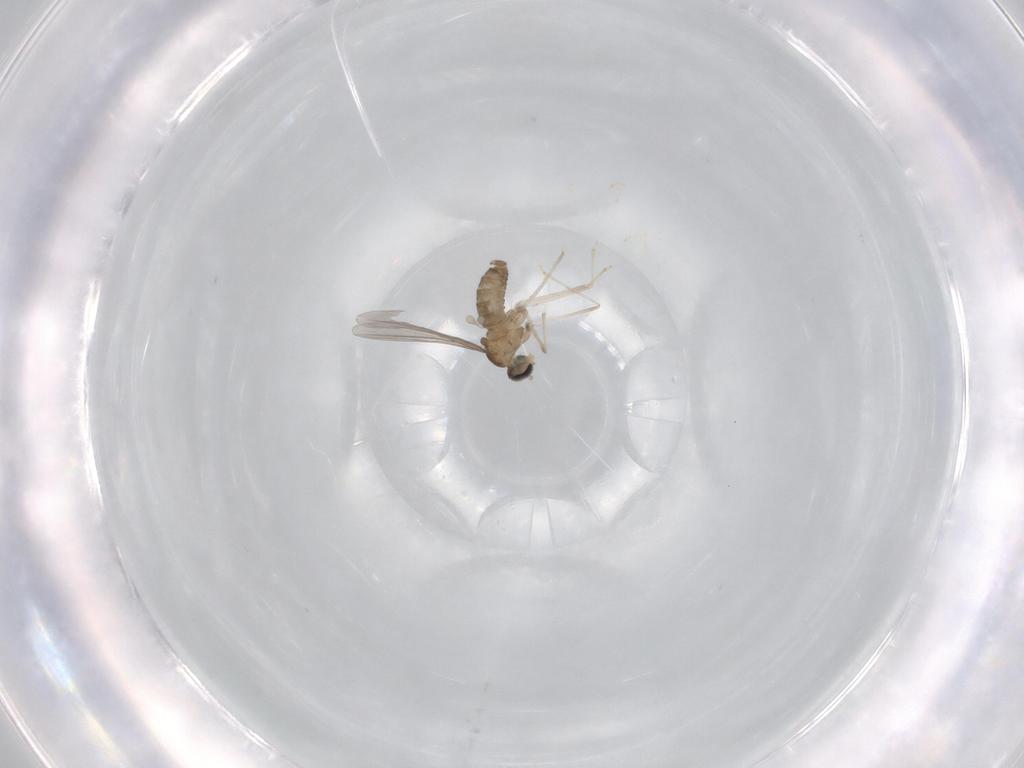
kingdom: Animalia
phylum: Arthropoda
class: Insecta
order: Diptera
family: Cecidomyiidae
